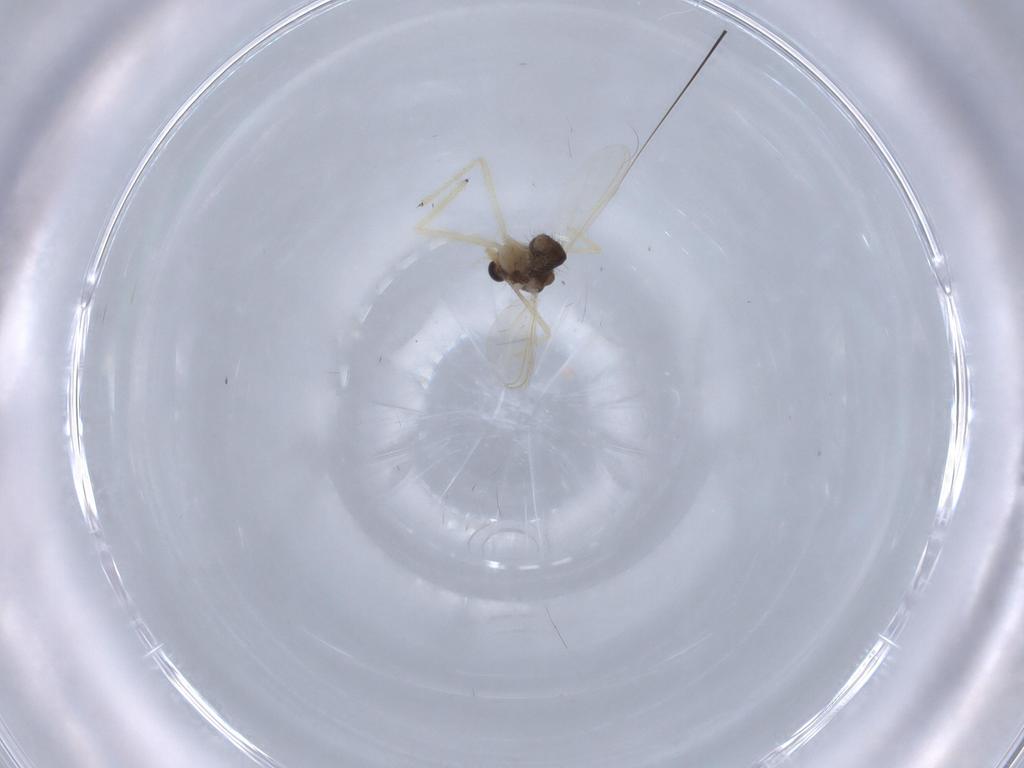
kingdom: Animalia
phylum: Arthropoda
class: Insecta
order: Diptera
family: Chironomidae
